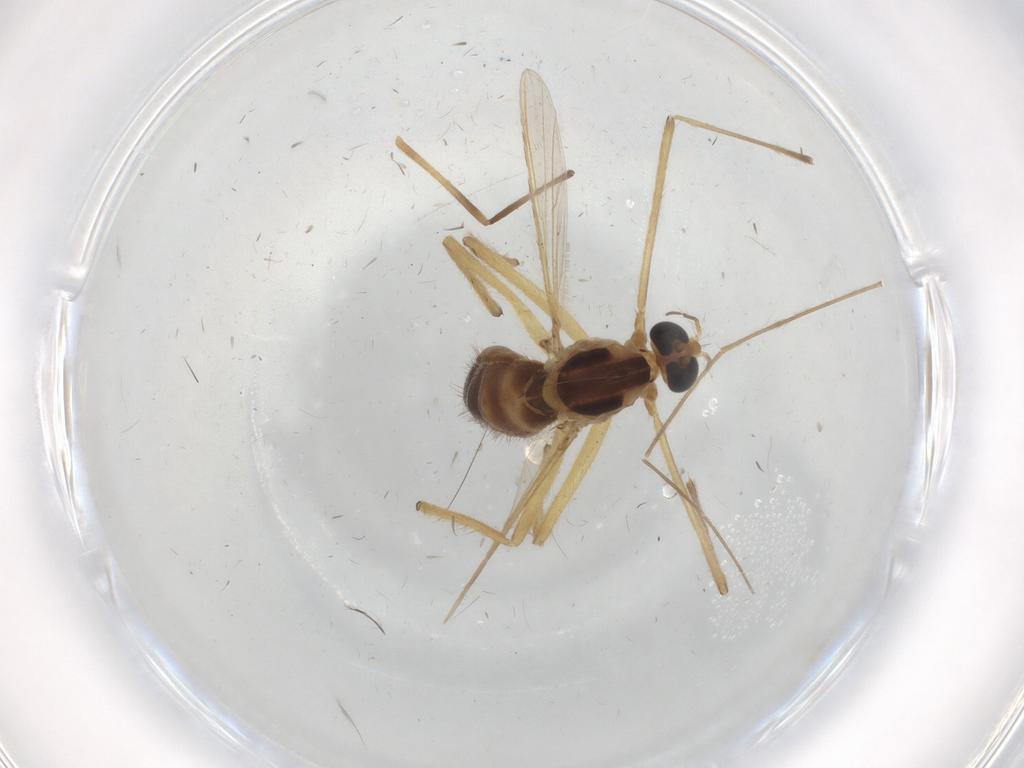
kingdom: Animalia
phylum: Arthropoda
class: Insecta
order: Diptera
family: Chironomidae
